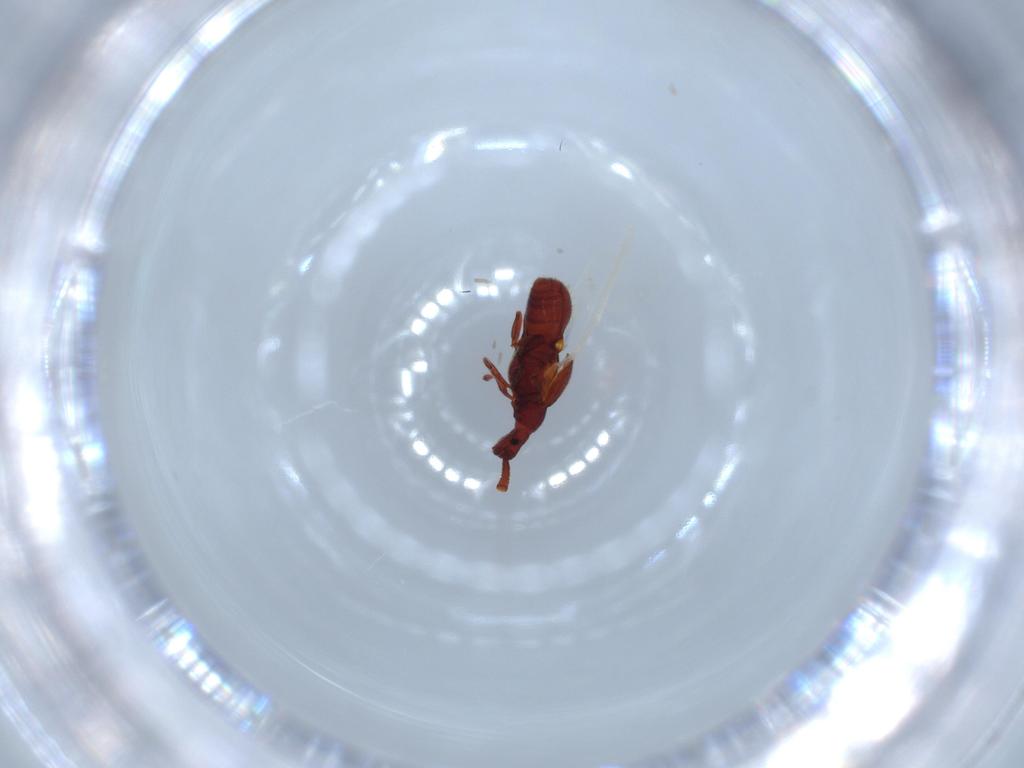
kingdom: Animalia
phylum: Arthropoda
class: Insecta
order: Coleoptera
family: Staphylinidae
